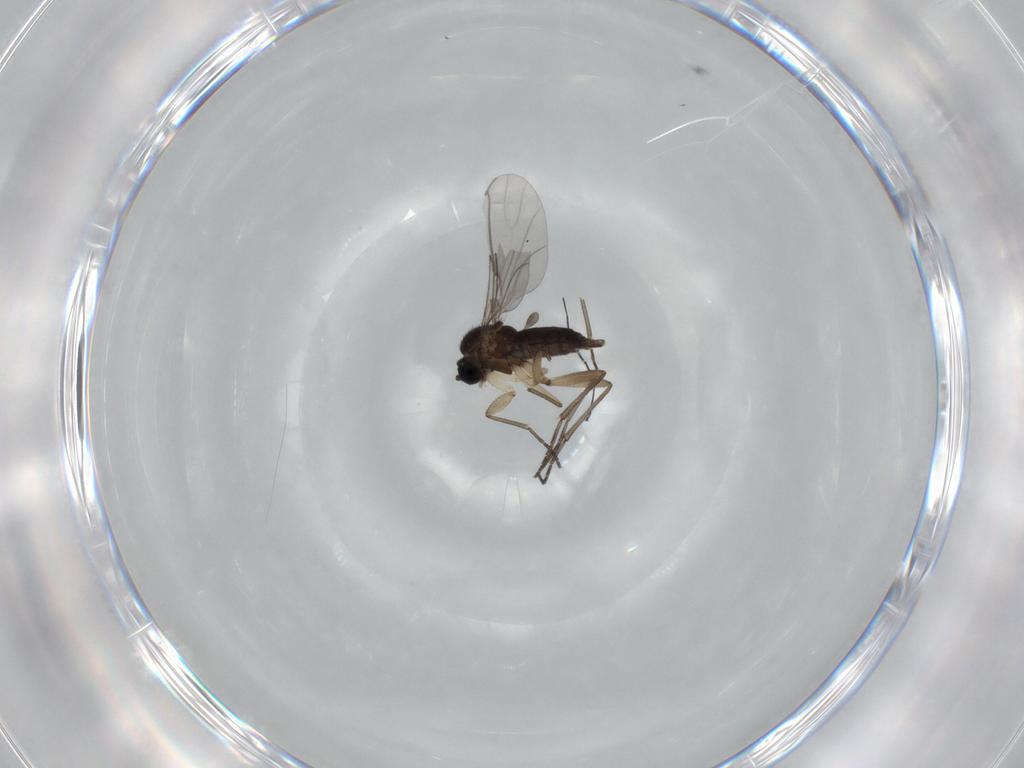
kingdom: Animalia
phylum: Arthropoda
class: Insecta
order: Diptera
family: Sciaridae
